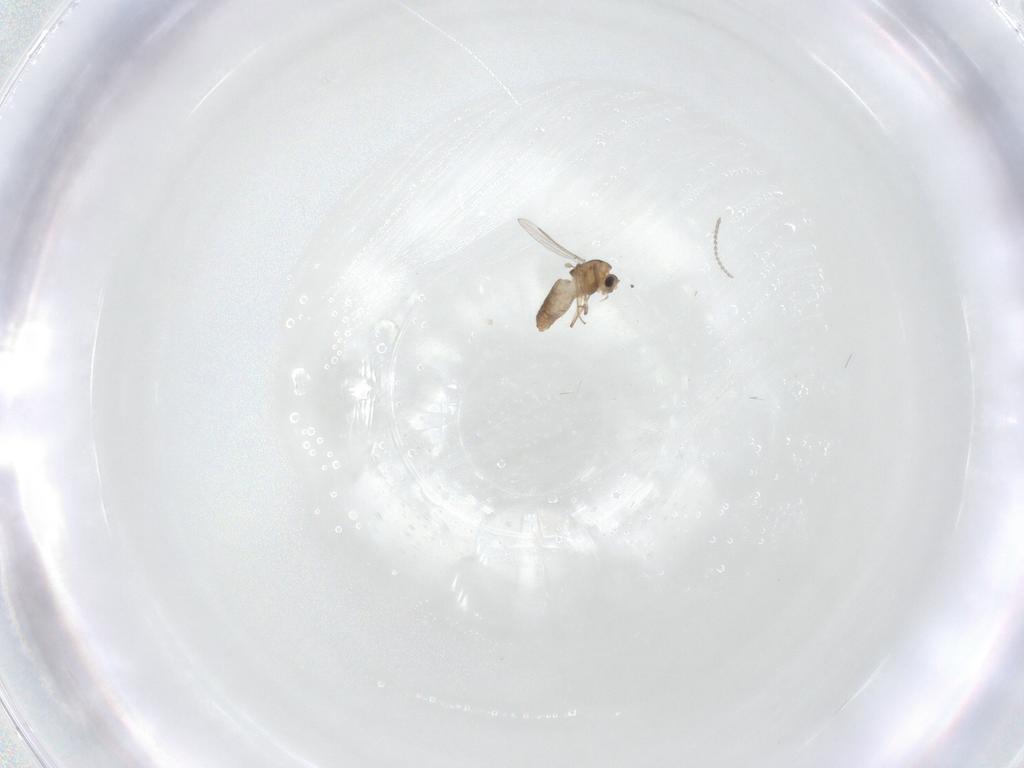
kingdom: Animalia
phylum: Arthropoda
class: Insecta
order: Diptera
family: Cecidomyiidae
